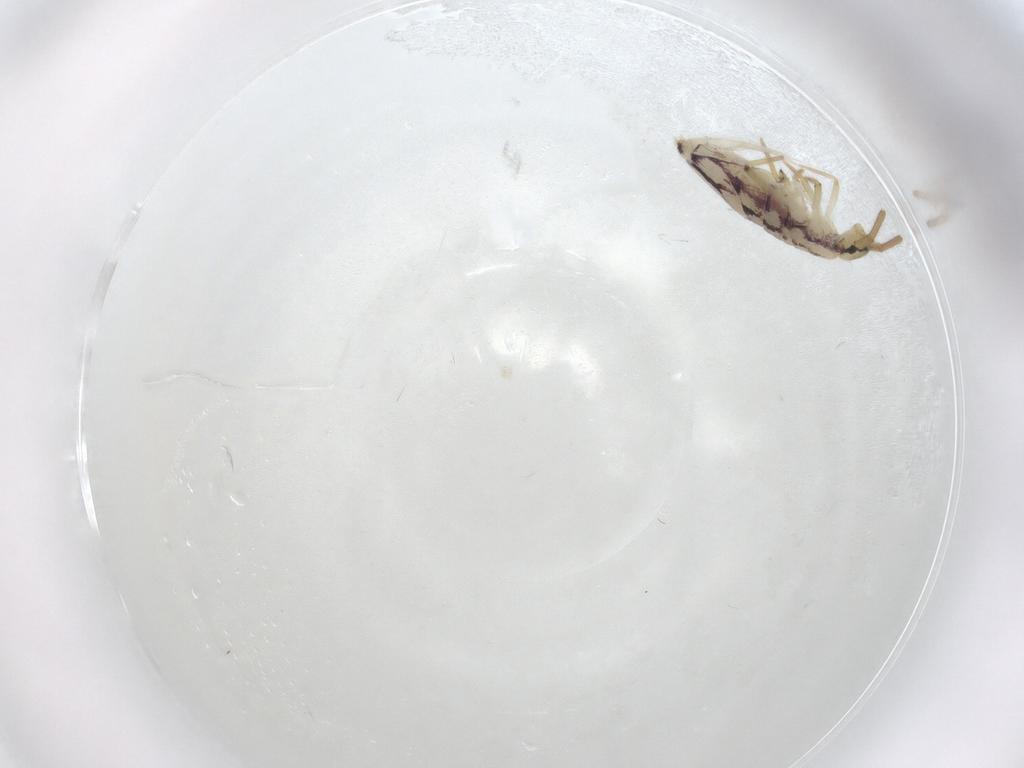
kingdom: Animalia
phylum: Arthropoda
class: Collembola
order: Entomobryomorpha
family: Entomobryidae
